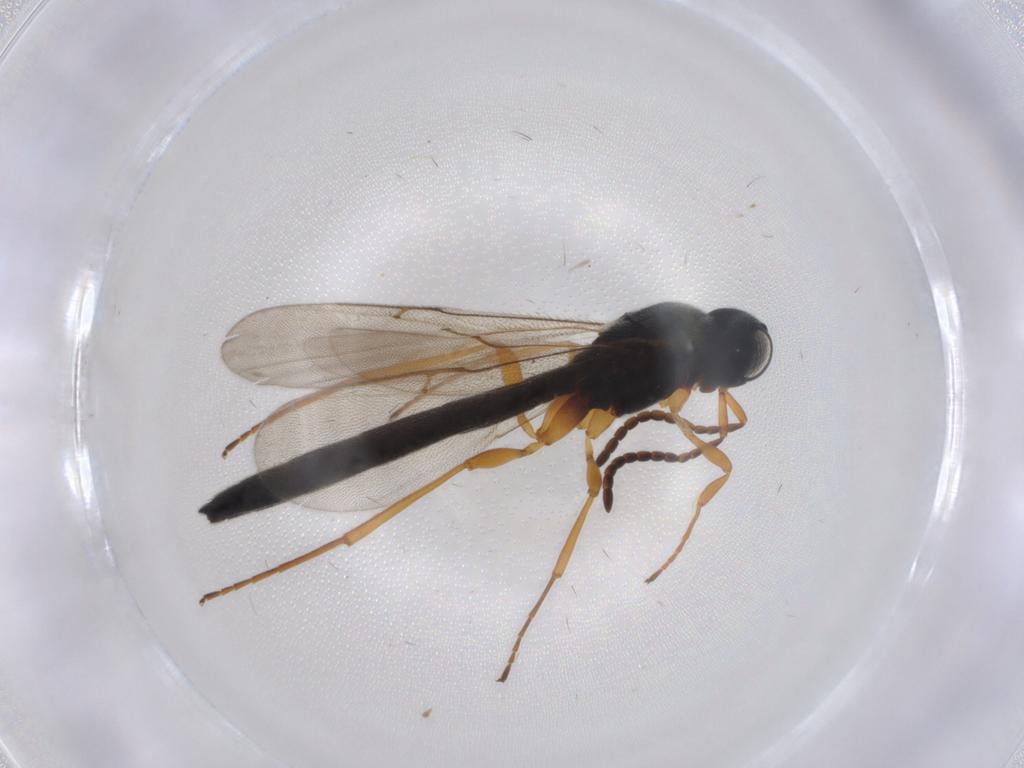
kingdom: Animalia
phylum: Arthropoda
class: Insecta
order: Hymenoptera
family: Scelionidae
